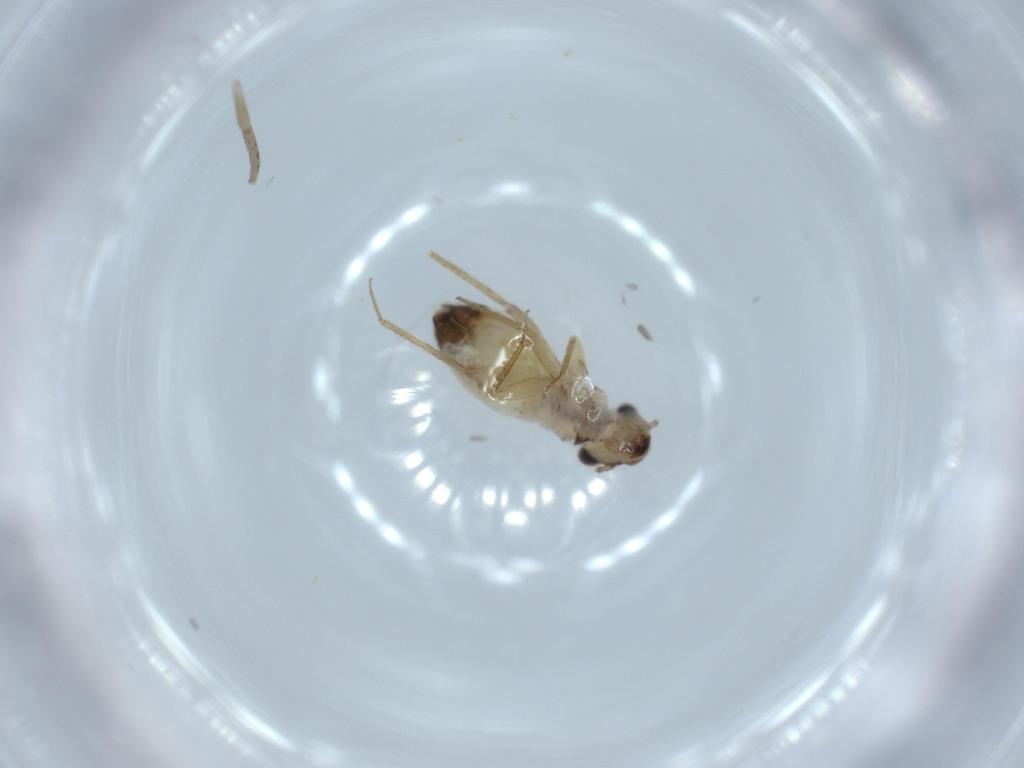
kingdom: Animalia
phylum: Arthropoda
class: Insecta
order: Psocodea
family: Lepidopsocidae
